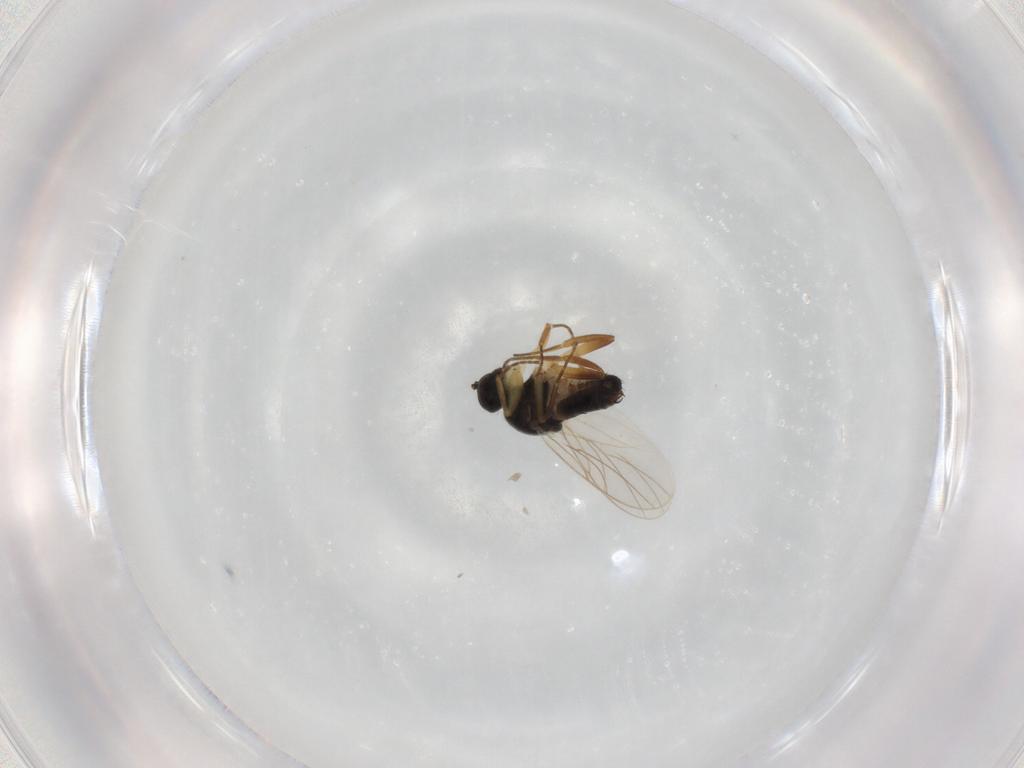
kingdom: Animalia
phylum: Arthropoda
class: Insecta
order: Diptera
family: Hybotidae
